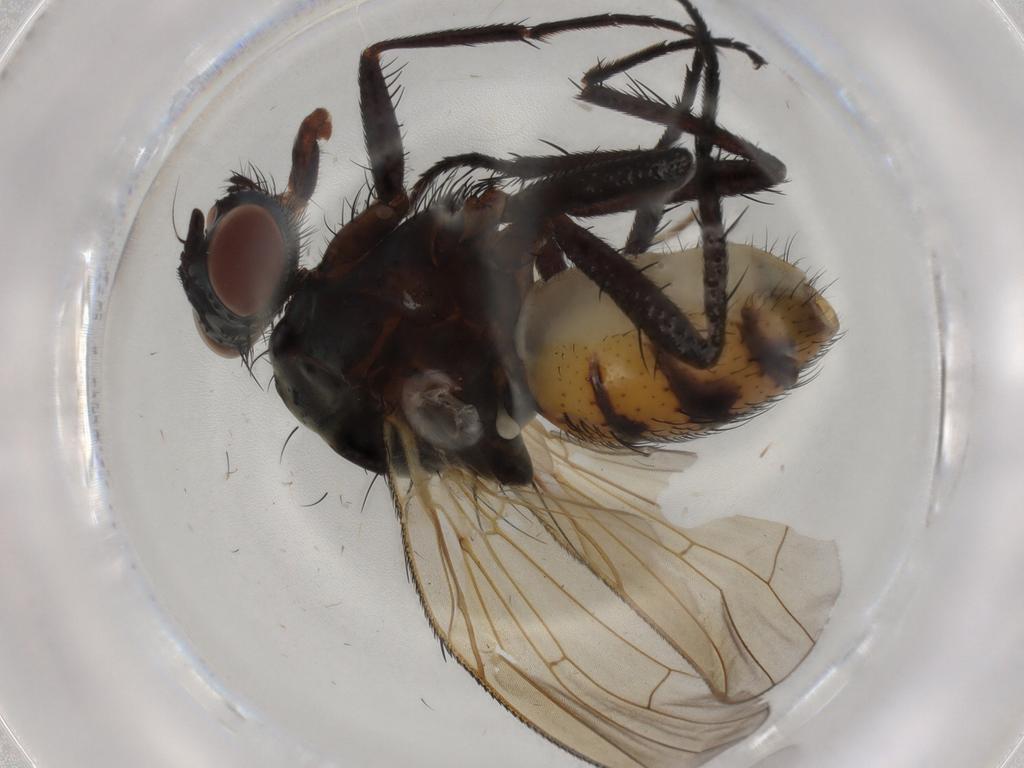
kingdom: Animalia
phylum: Arthropoda
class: Insecta
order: Diptera
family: Anthomyiidae
